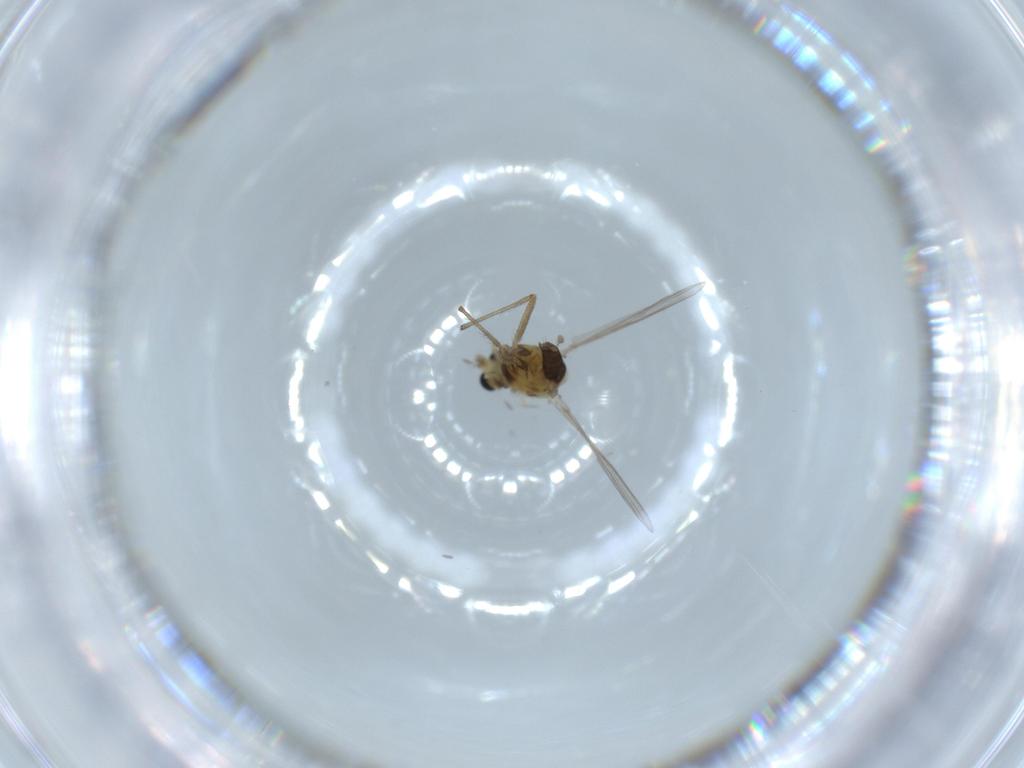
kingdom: Animalia
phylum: Arthropoda
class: Insecta
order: Diptera
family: Chironomidae
